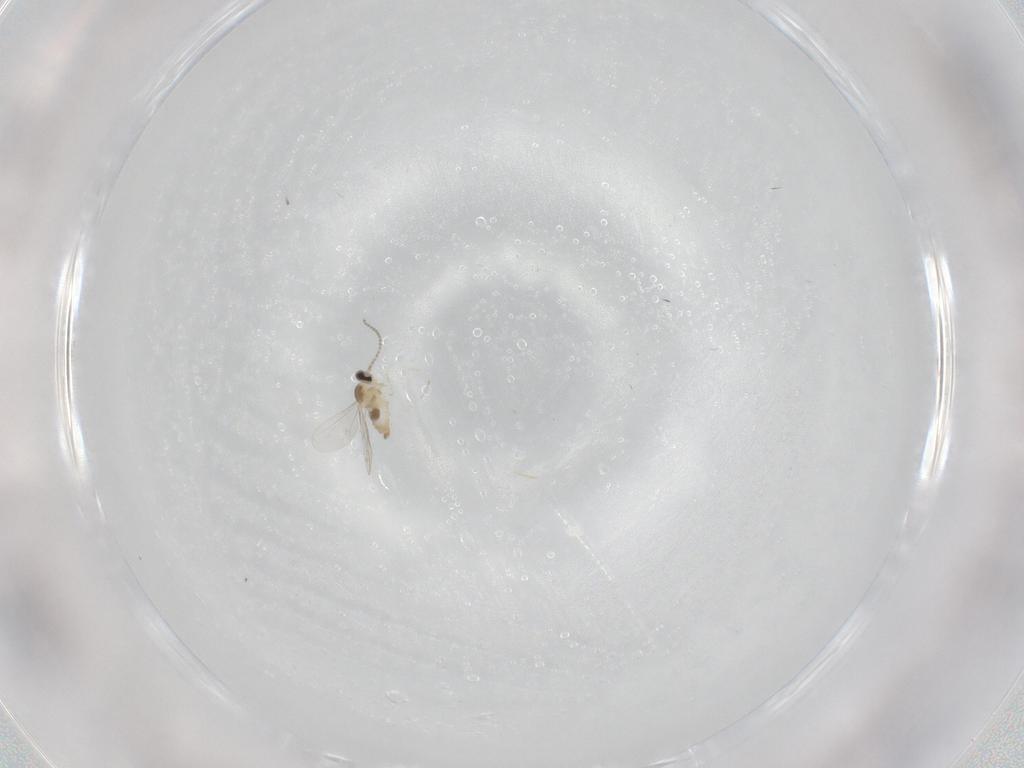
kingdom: Animalia
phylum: Arthropoda
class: Insecta
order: Diptera
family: Cecidomyiidae
